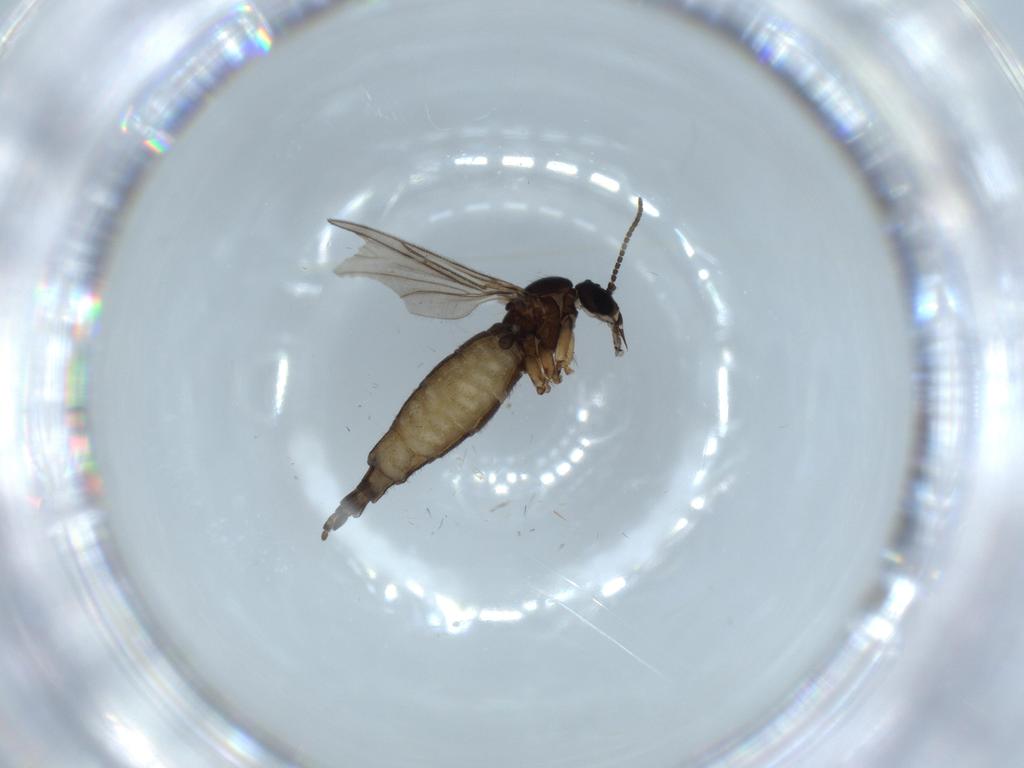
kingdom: Animalia
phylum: Arthropoda
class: Insecta
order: Diptera
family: Sciaridae
